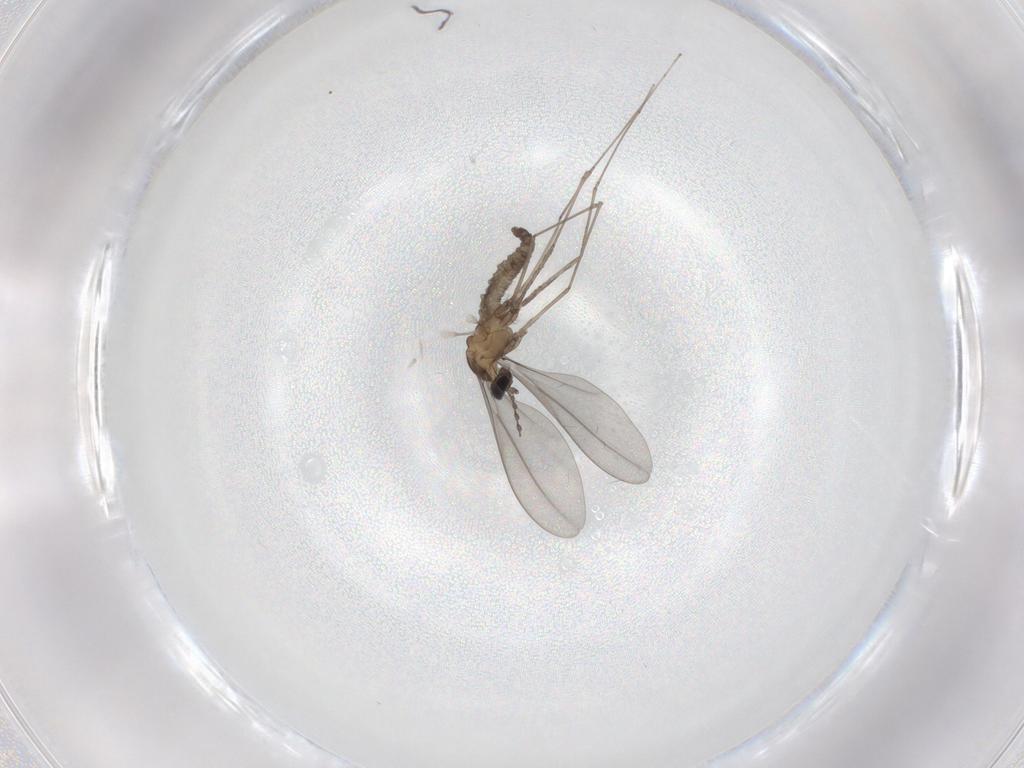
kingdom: Animalia
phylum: Arthropoda
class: Insecta
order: Diptera
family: Cecidomyiidae
